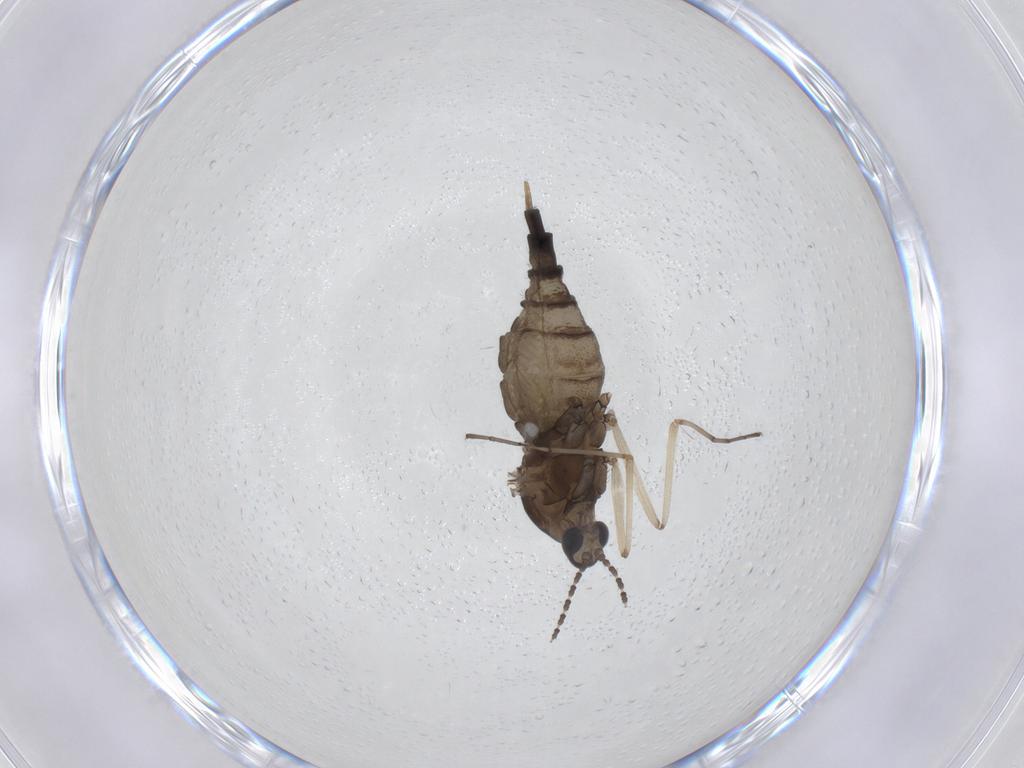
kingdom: Animalia
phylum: Arthropoda
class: Insecta
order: Diptera
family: Cecidomyiidae
